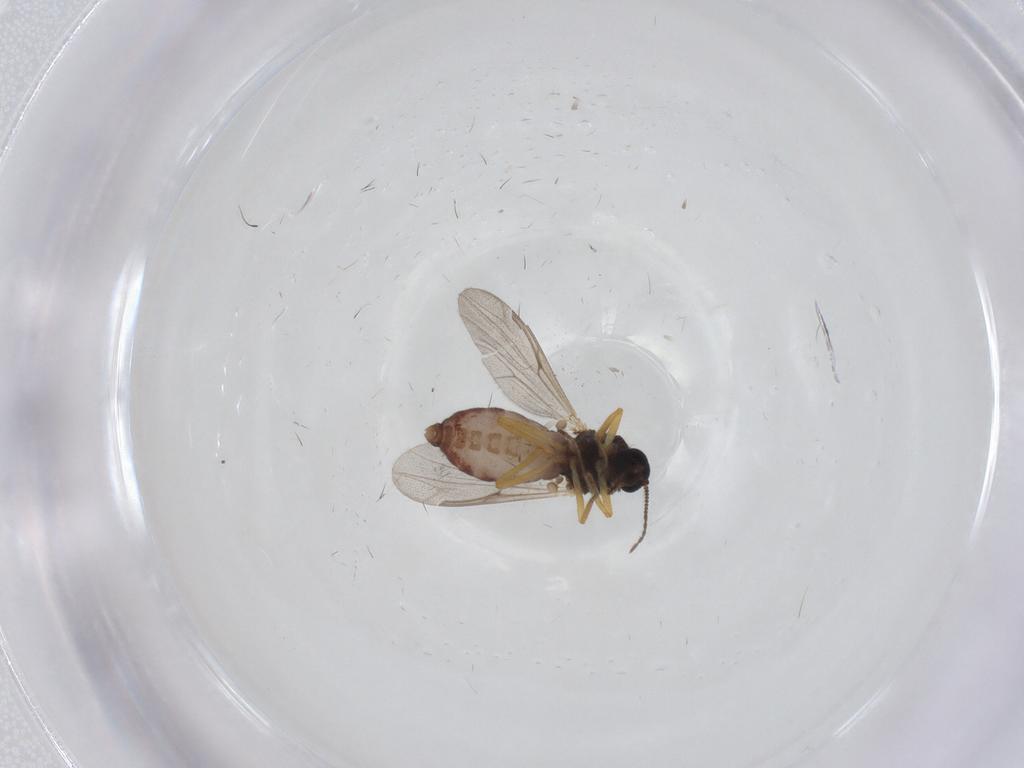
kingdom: Animalia
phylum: Arthropoda
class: Insecta
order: Diptera
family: Ceratopogonidae
